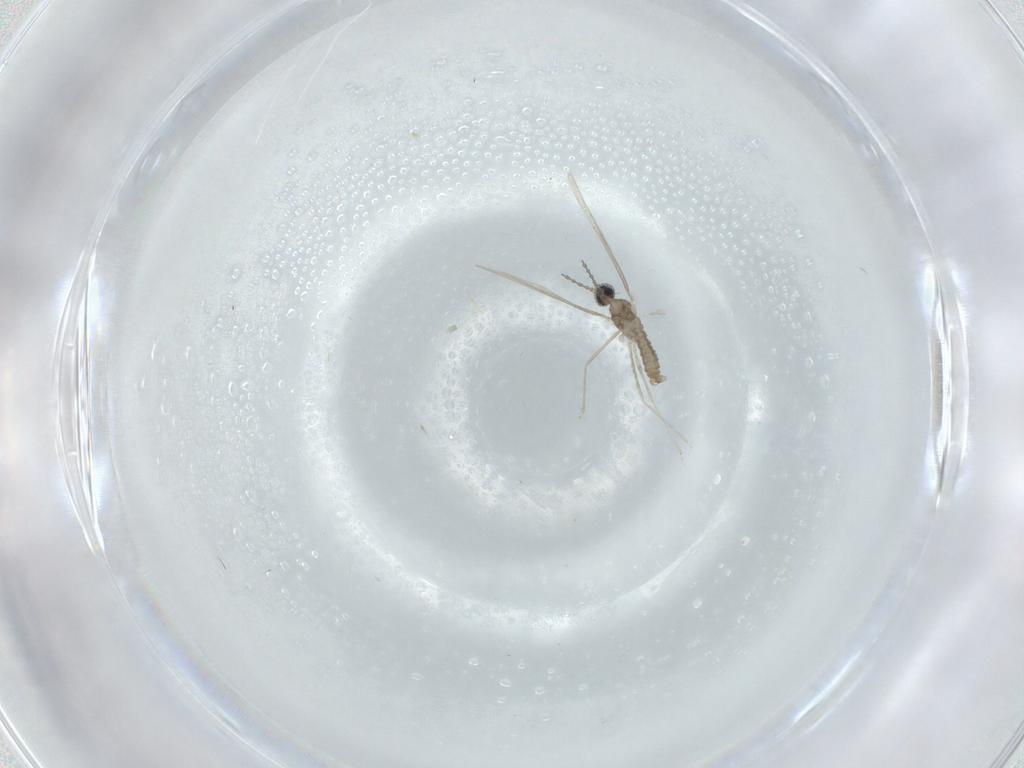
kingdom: Animalia
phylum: Arthropoda
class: Insecta
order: Diptera
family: Cecidomyiidae
